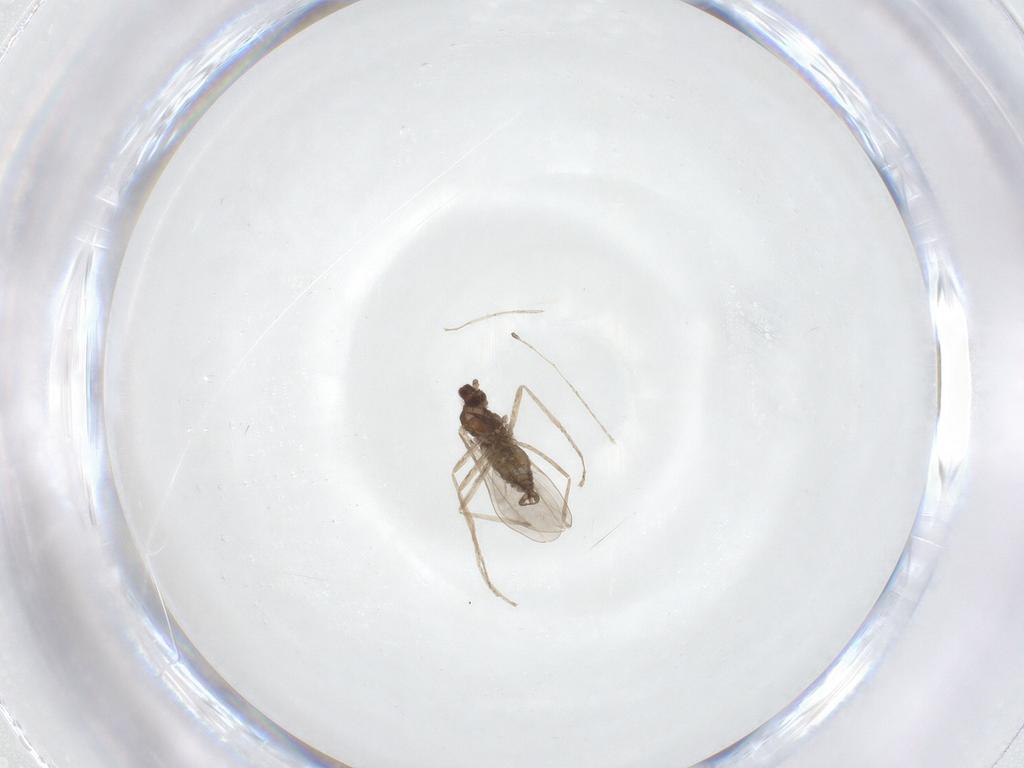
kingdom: Animalia
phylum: Arthropoda
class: Insecta
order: Diptera
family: Cecidomyiidae
